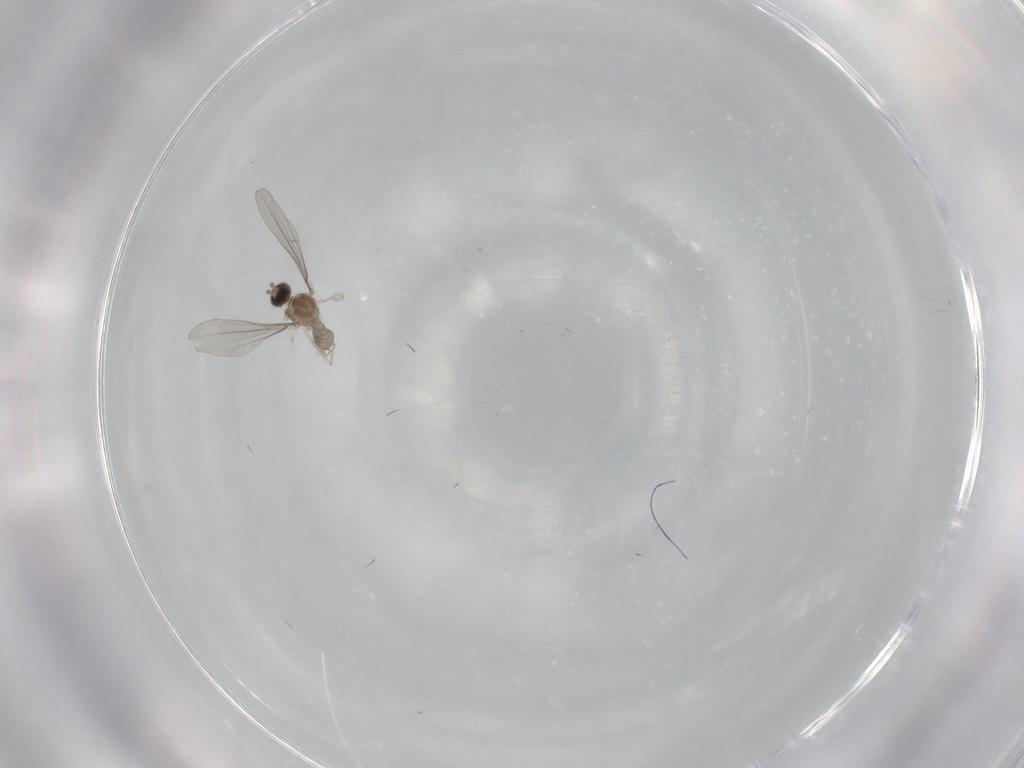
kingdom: Animalia
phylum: Arthropoda
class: Insecta
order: Diptera
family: Cecidomyiidae
